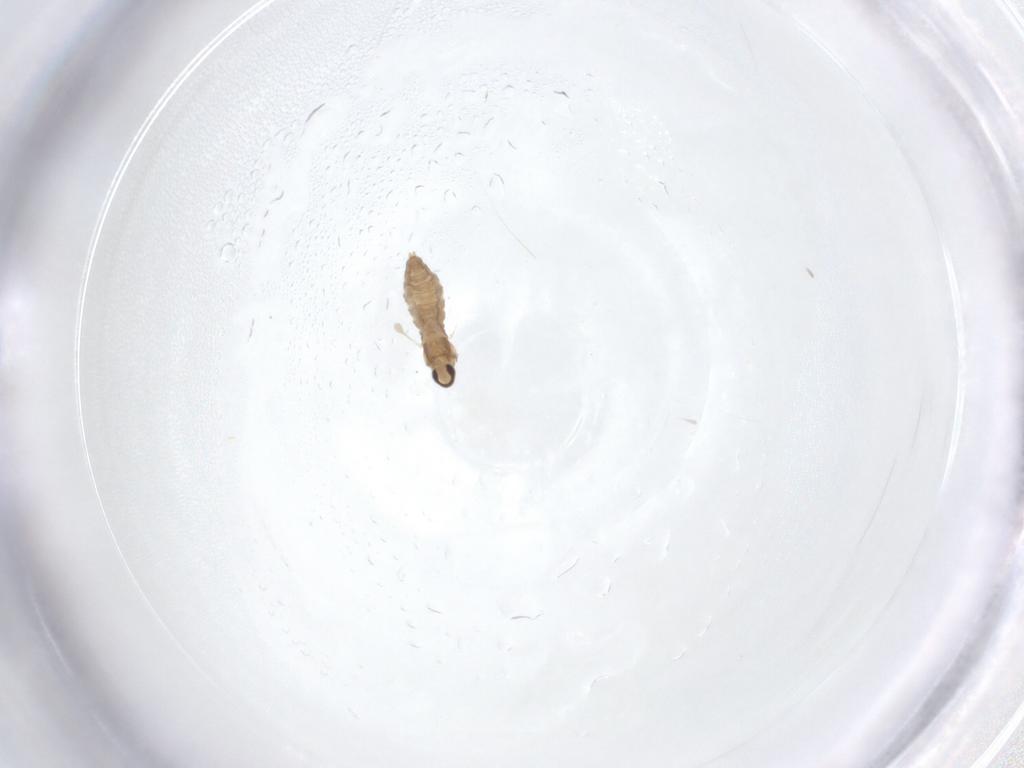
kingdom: Animalia
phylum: Arthropoda
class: Insecta
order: Diptera
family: Cecidomyiidae
